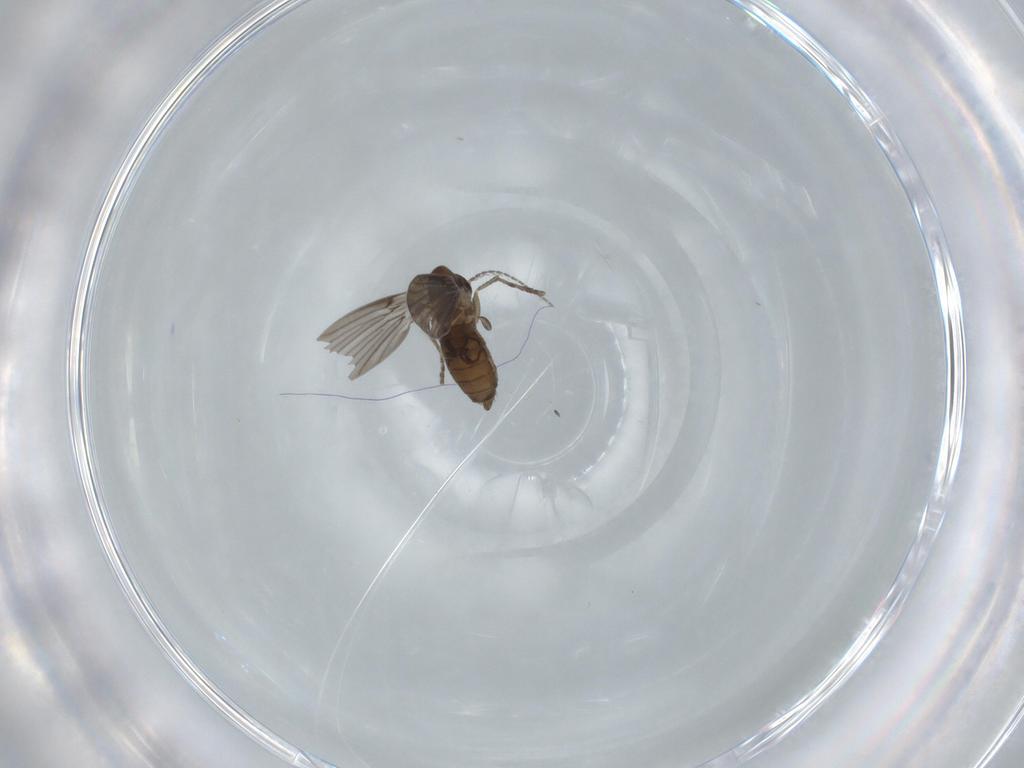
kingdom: Animalia
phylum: Arthropoda
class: Insecta
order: Diptera
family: Psychodidae
